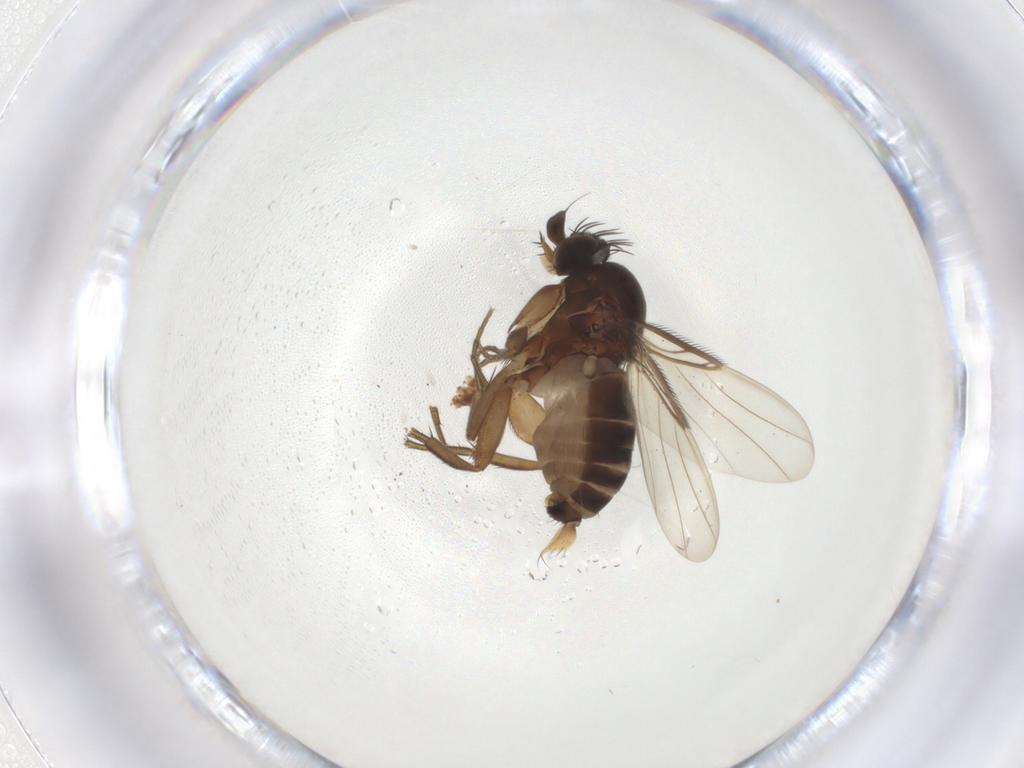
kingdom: Animalia
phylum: Arthropoda
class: Insecta
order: Diptera
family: Phoridae
